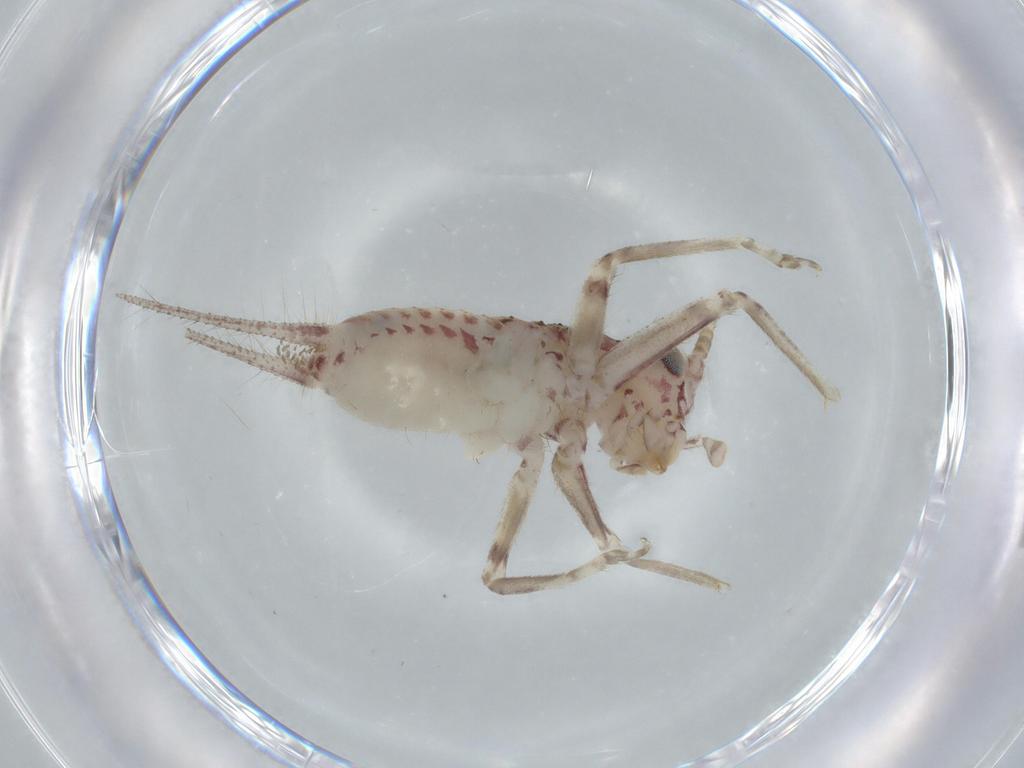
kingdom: Animalia
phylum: Arthropoda
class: Insecta
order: Orthoptera
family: Trigonidiidae
